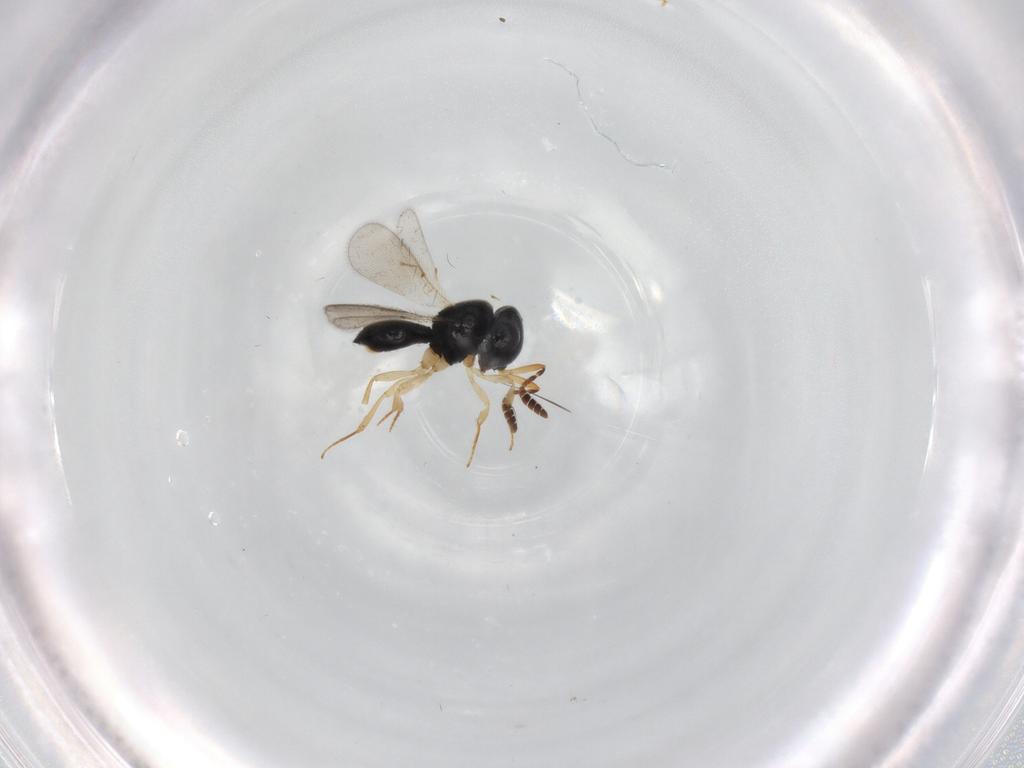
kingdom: Animalia
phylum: Arthropoda
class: Insecta
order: Hymenoptera
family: Scelionidae
